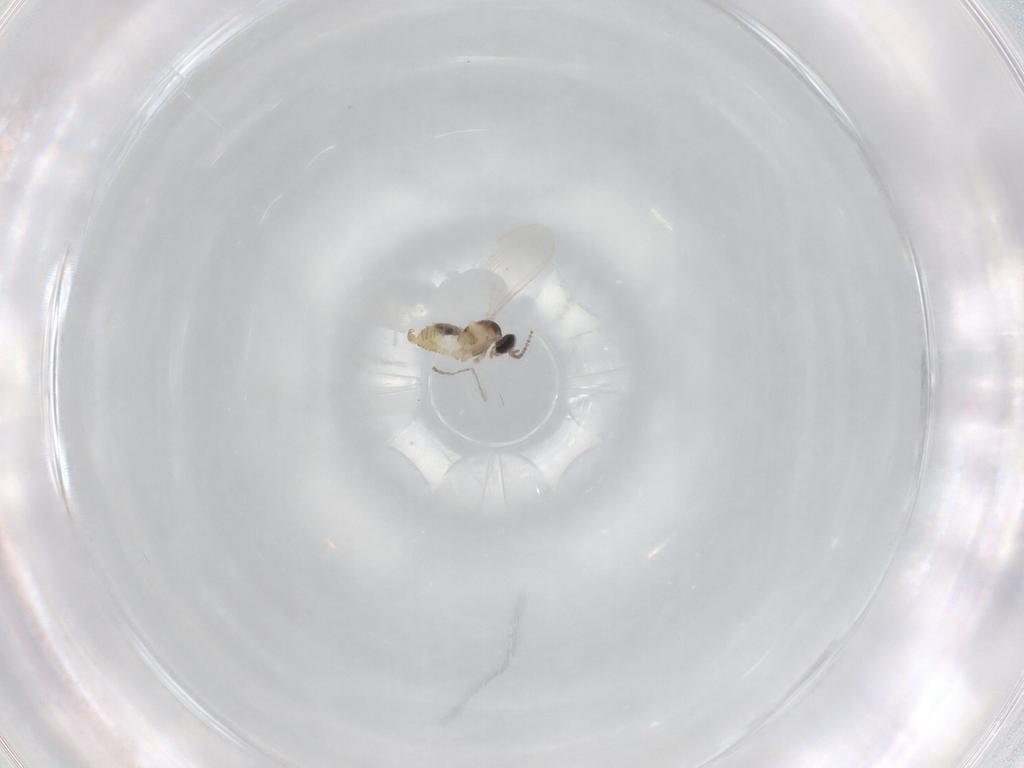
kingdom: Animalia
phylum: Arthropoda
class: Insecta
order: Diptera
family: Cecidomyiidae
